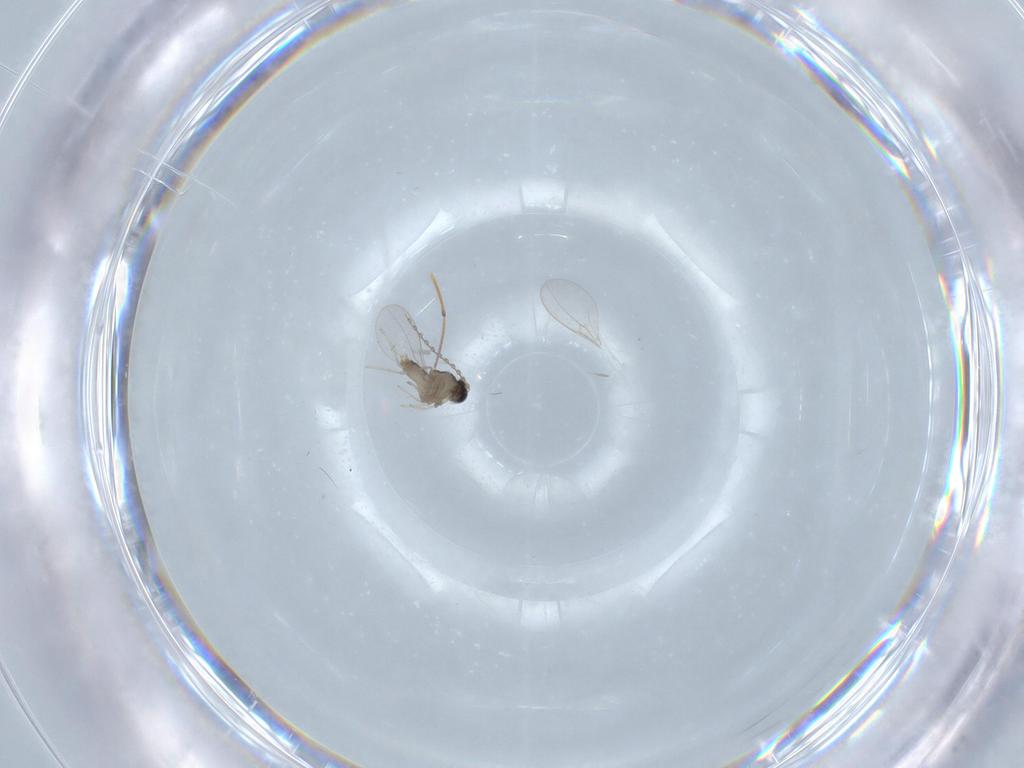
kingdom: Animalia
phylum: Arthropoda
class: Insecta
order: Diptera
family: Cecidomyiidae
